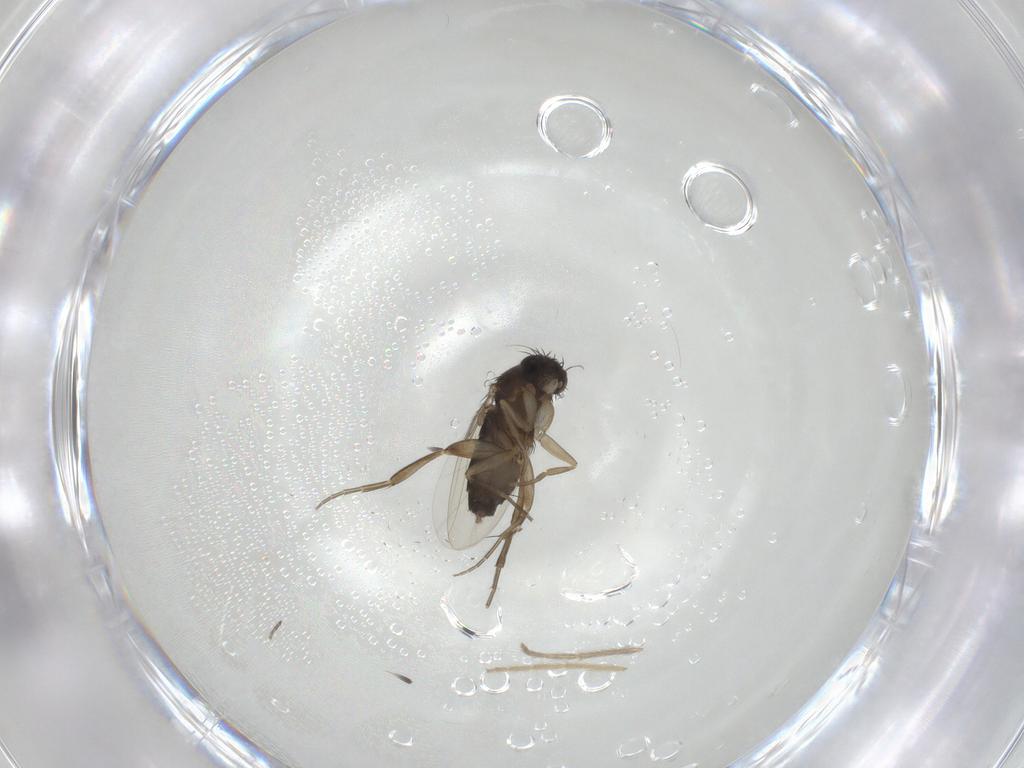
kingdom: Animalia
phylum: Arthropoda
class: Insecta
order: Diptera
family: Phoridae
